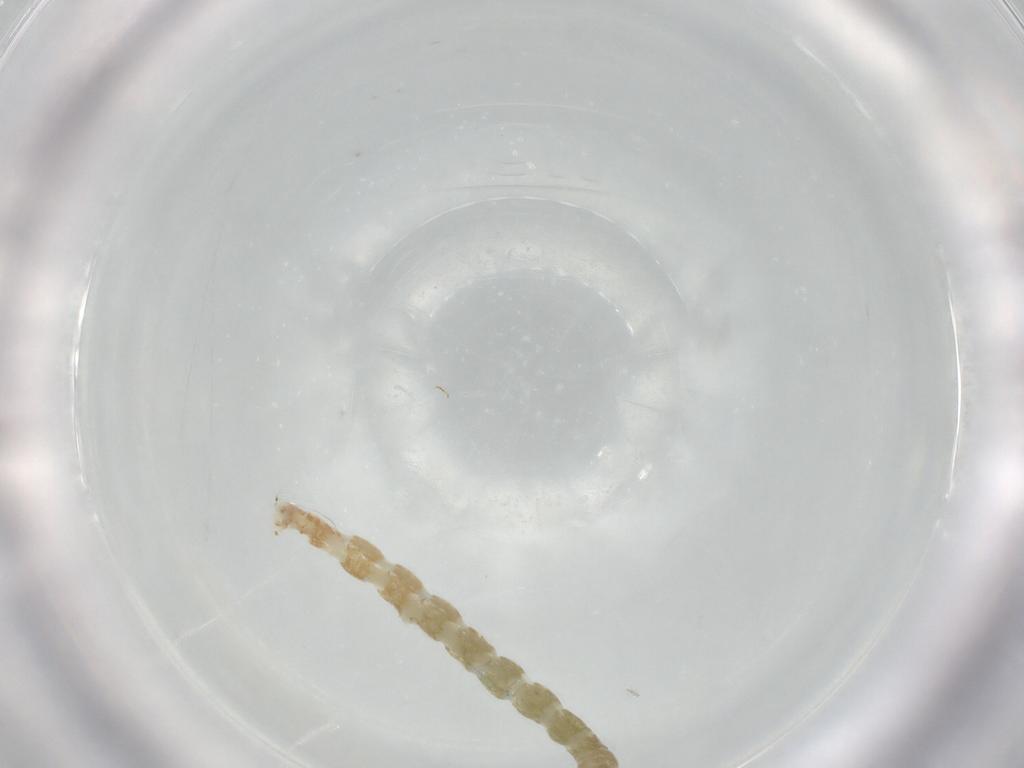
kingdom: Animalia
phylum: Arthropoda
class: Insecta
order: Diptera
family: Chironomidae
